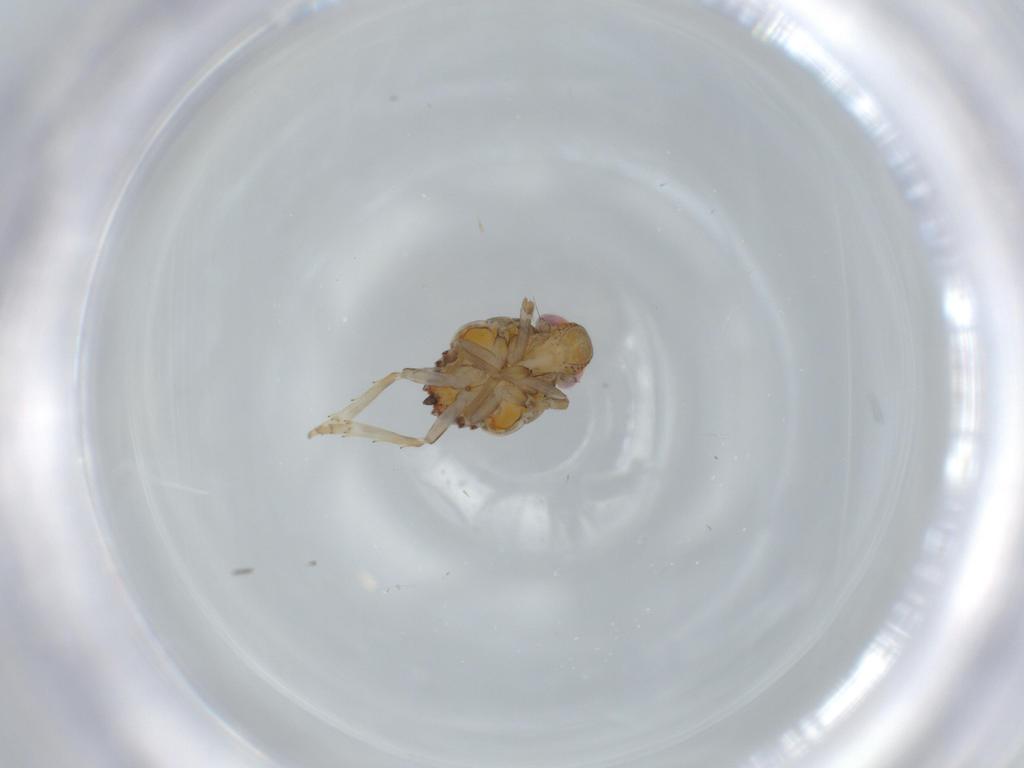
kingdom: Animalia
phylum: Arthropoda
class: Insecta
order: Hemiptera
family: Issidae
